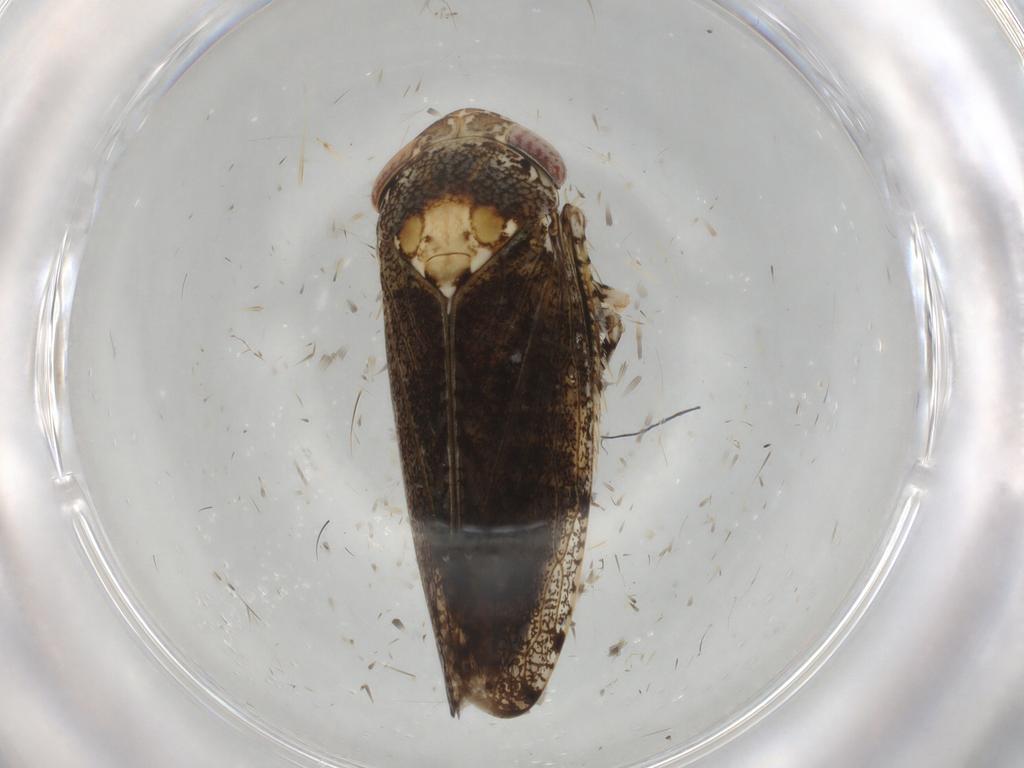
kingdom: Animalia
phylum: Arthropoda
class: Insecta
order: Hemiptera
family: Cicadellidae
